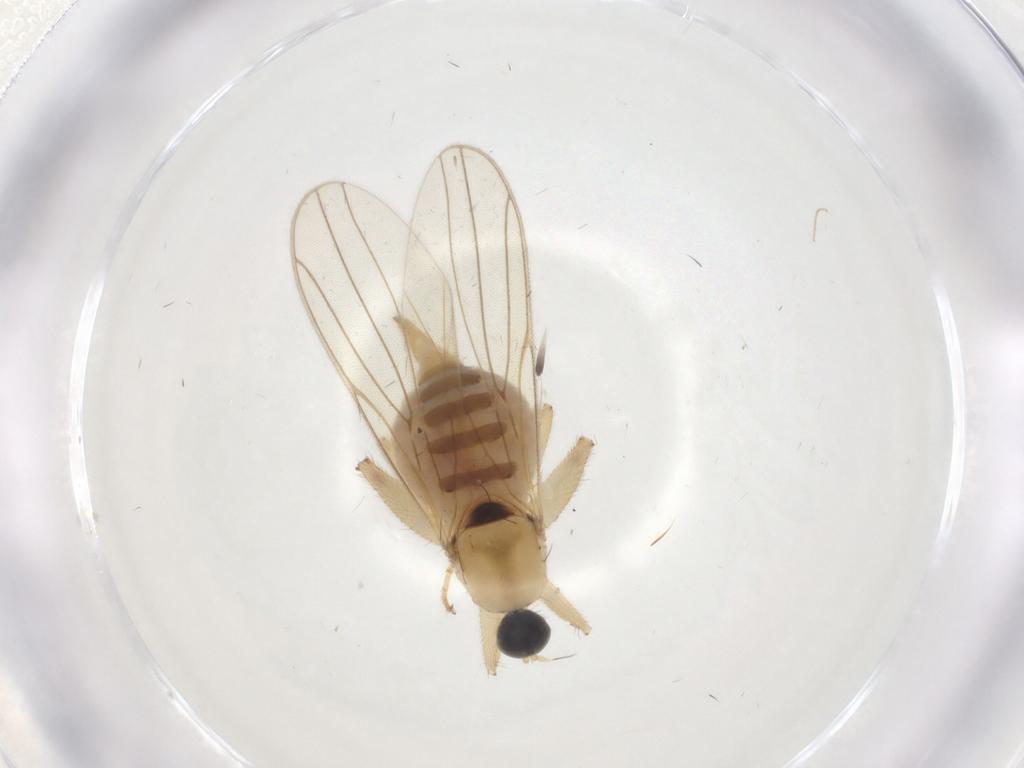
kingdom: Animalia
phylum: Arthropoda
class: Insecta
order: Diptera
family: Hybotidae
